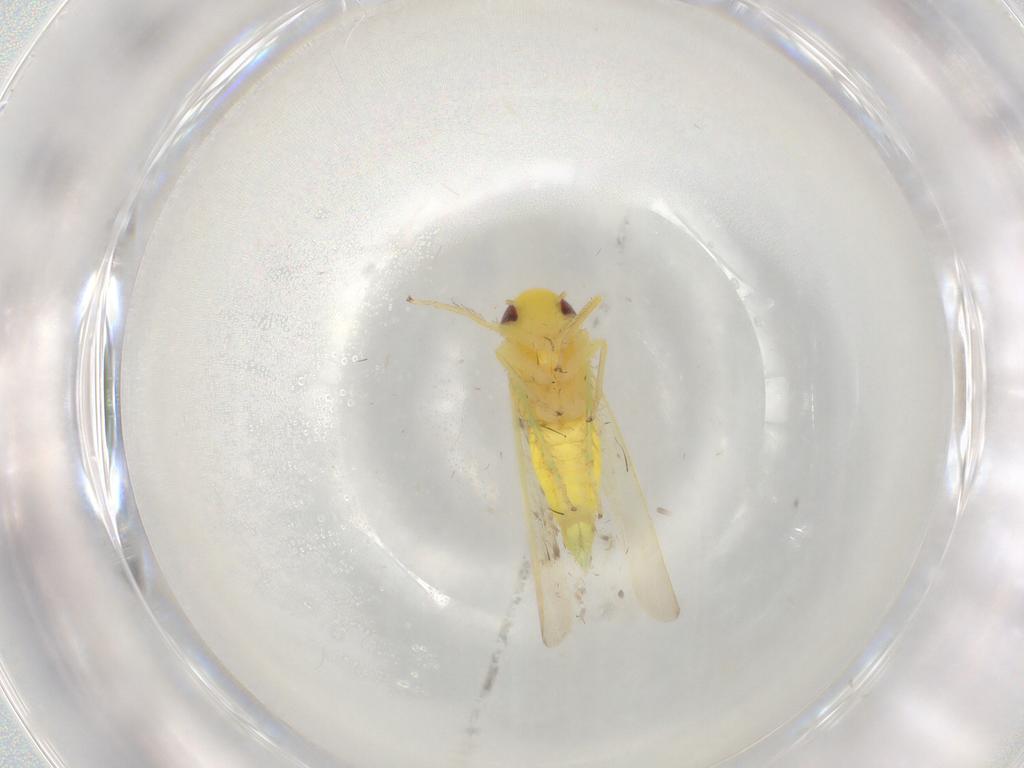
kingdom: Animalia
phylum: Arthropoda
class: Insecta
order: Hemiptera
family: Cicadellidae
